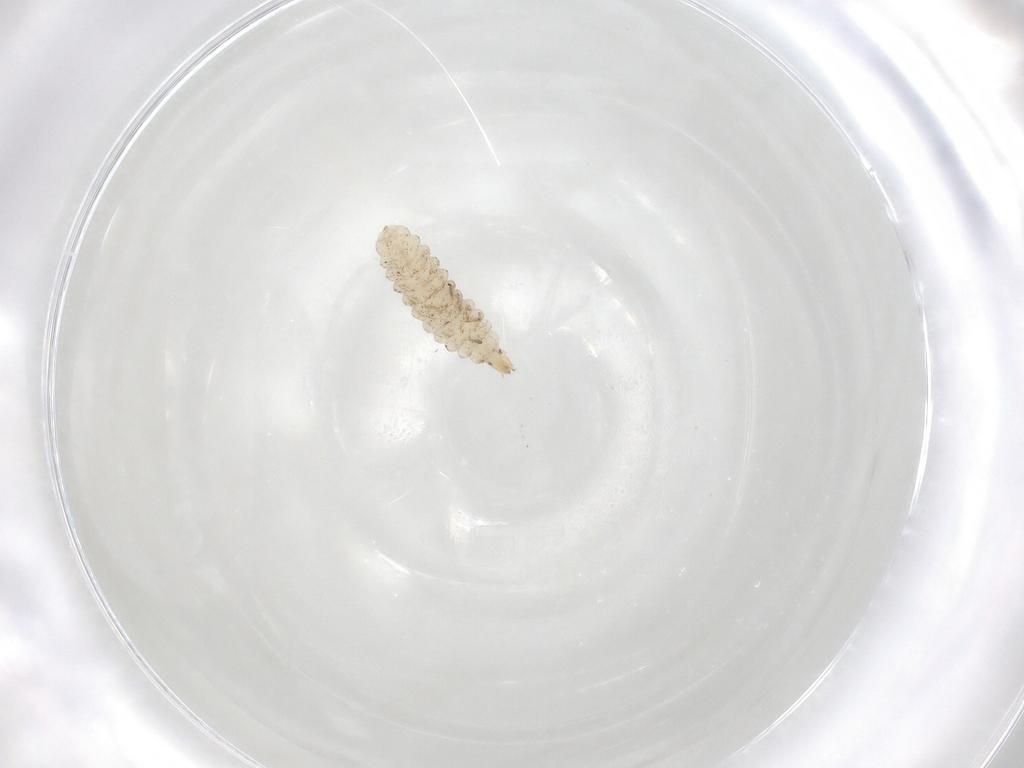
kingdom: Animalia
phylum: Arthropoda
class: Insecta
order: Diptera
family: Stratiomyidae
